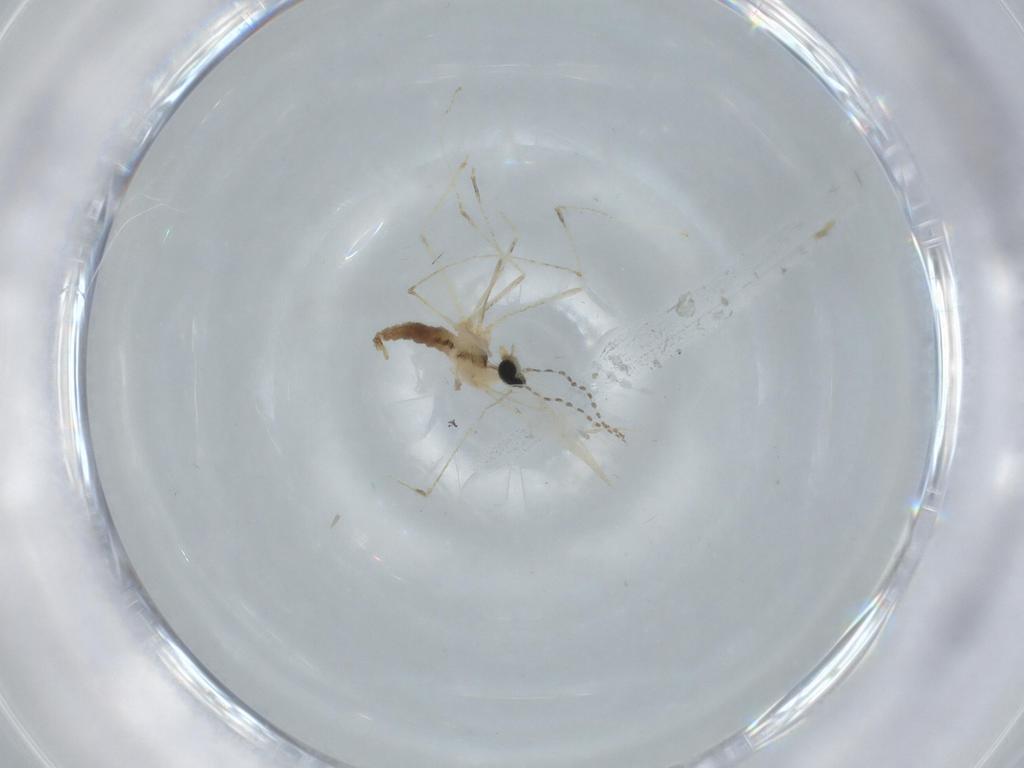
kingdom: Animalia
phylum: Arthropoda
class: Insecta
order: Diptera
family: Cecidomyiidae
